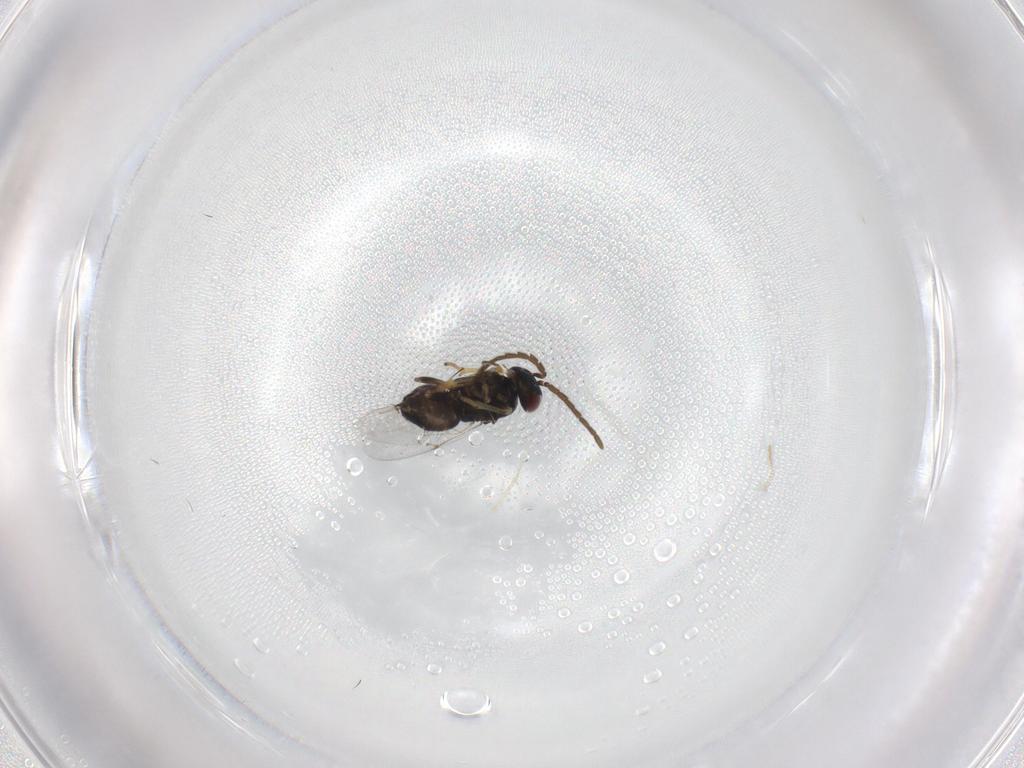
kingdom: Animalia
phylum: Arthropoda
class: Insecta
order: Hymenoptera
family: Encyrtidae
